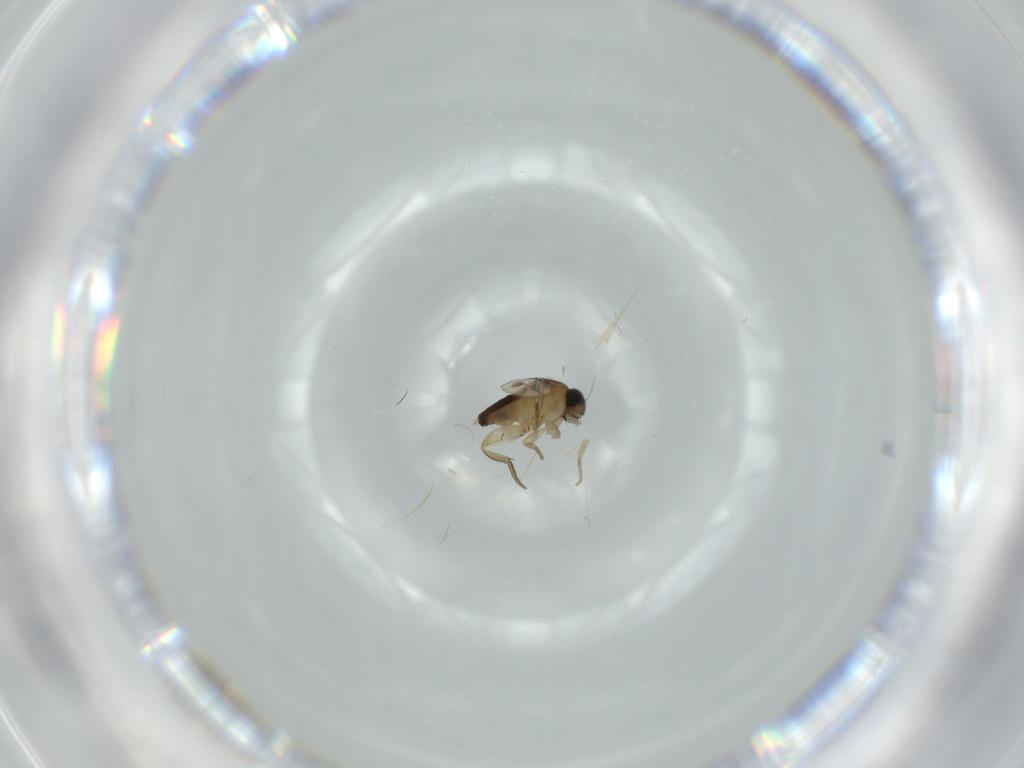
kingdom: Animalia
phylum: Arthropoda
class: Insecta
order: Diptera
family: Phoridae
